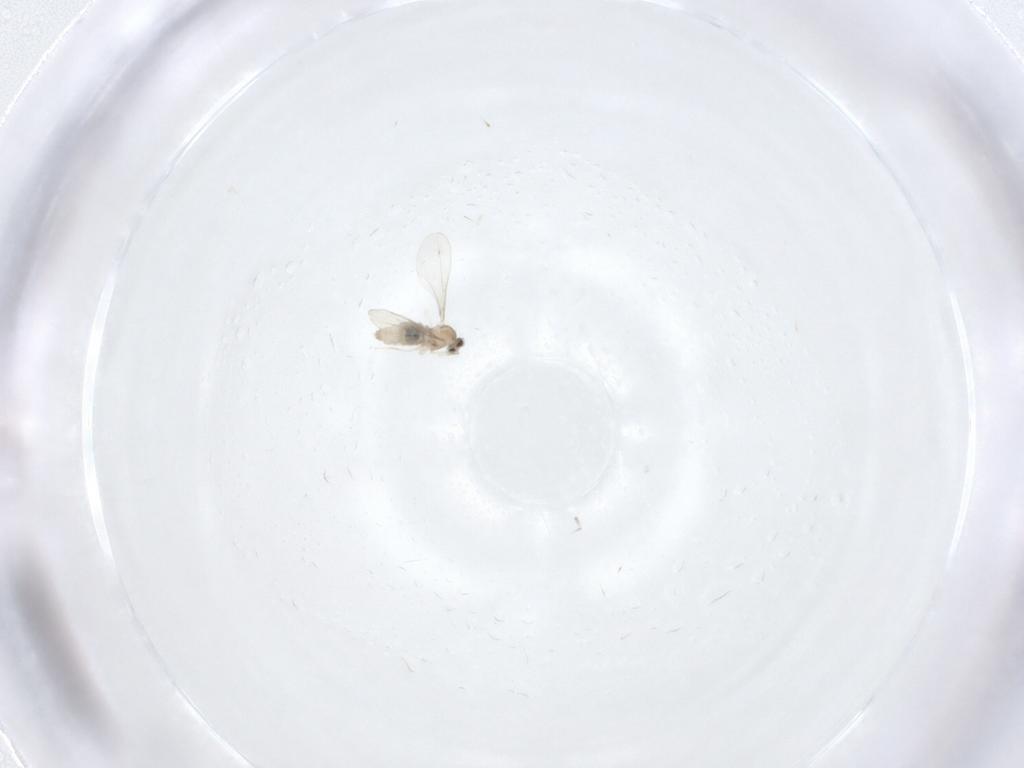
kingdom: Animalia
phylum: Arthropoda
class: Insecta
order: Diptera
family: Cecidomyiidae
